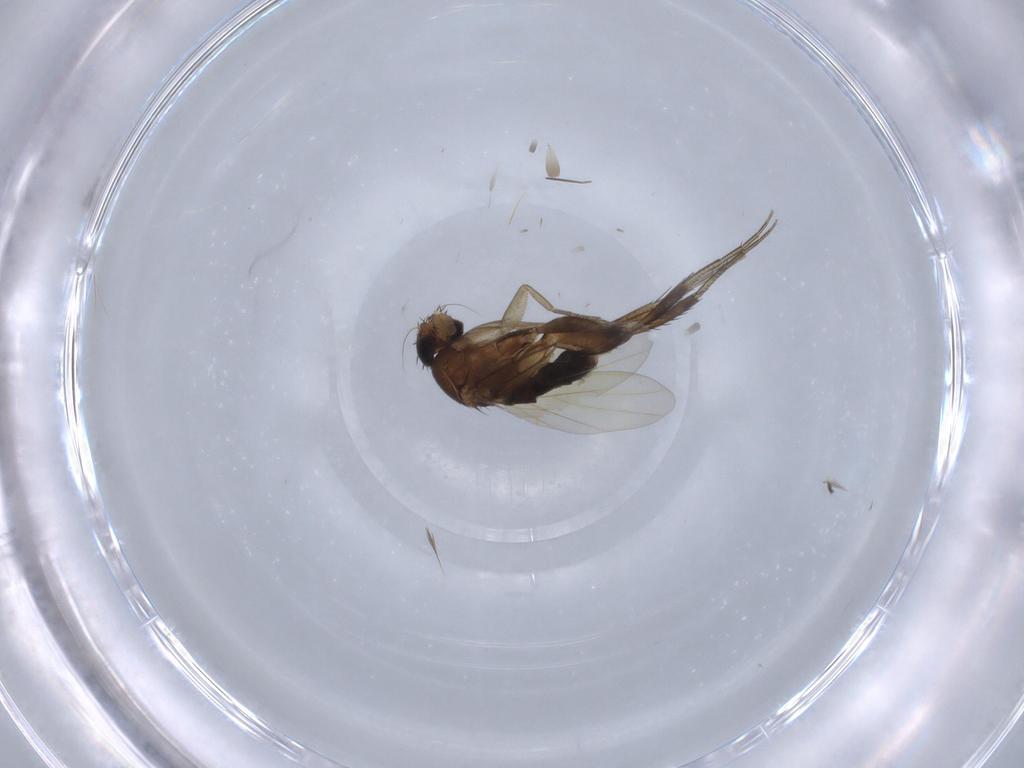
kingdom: Animalia
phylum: Arthropoda
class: Insecta
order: Diptera
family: Phoridae
